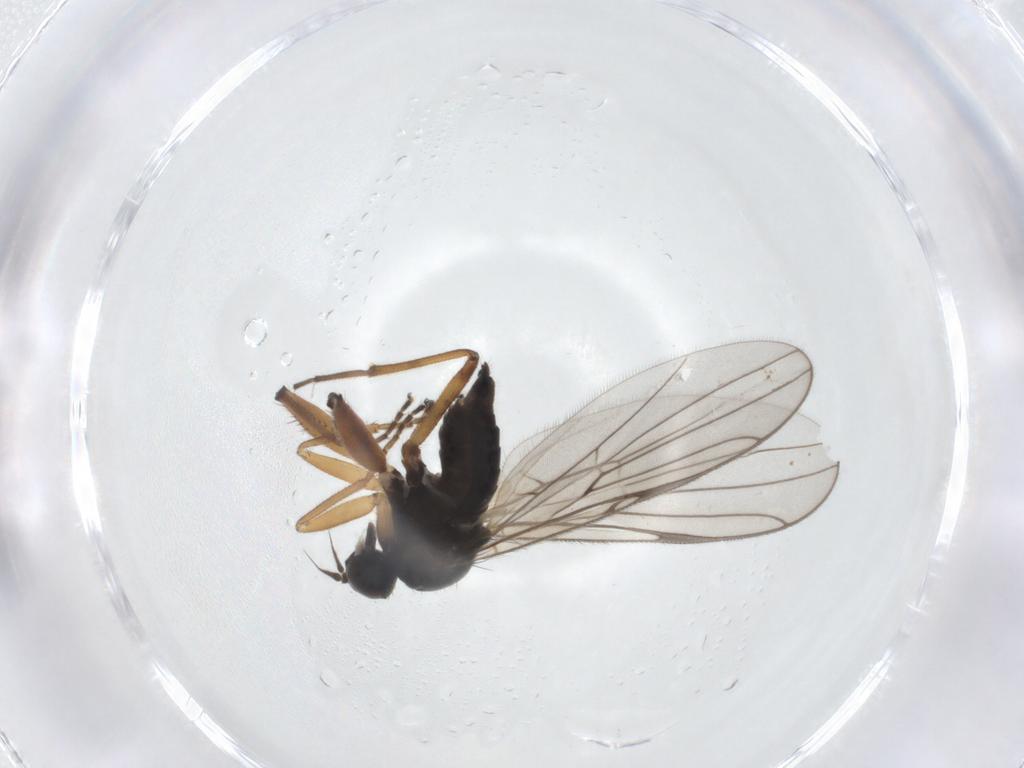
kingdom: Animalia
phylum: Arthropoda
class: Insecta
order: Diptera
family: Hybotidae
